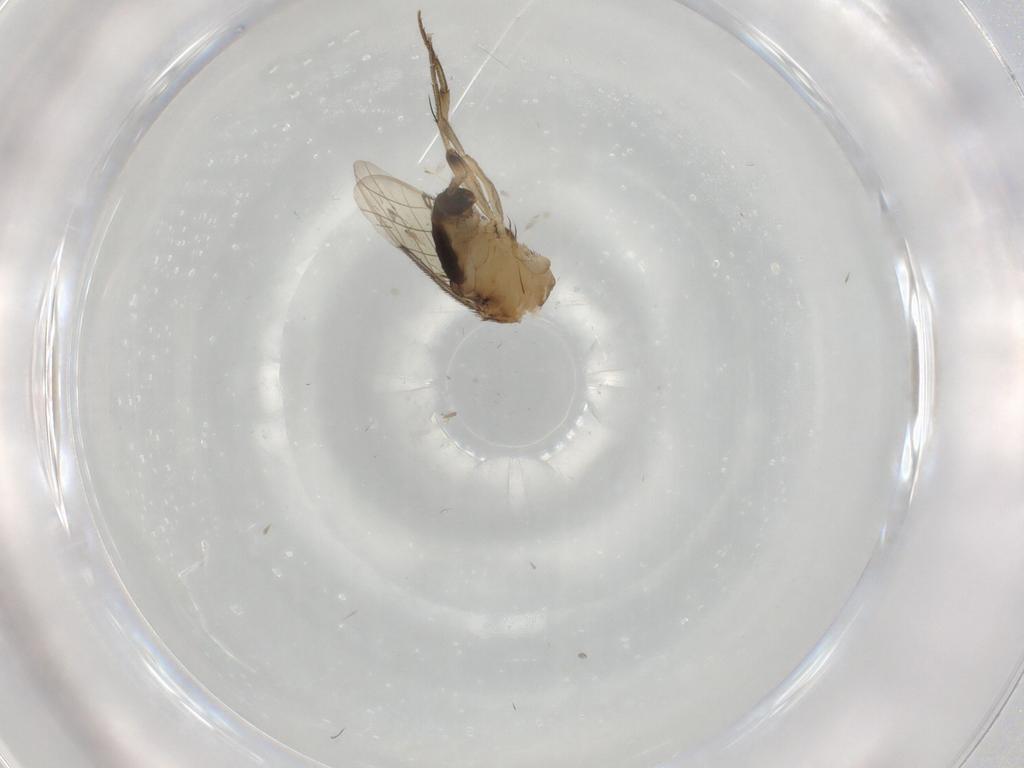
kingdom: Animalia
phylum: Arthropoda
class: Insecta
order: Diptera
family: Phoridae
